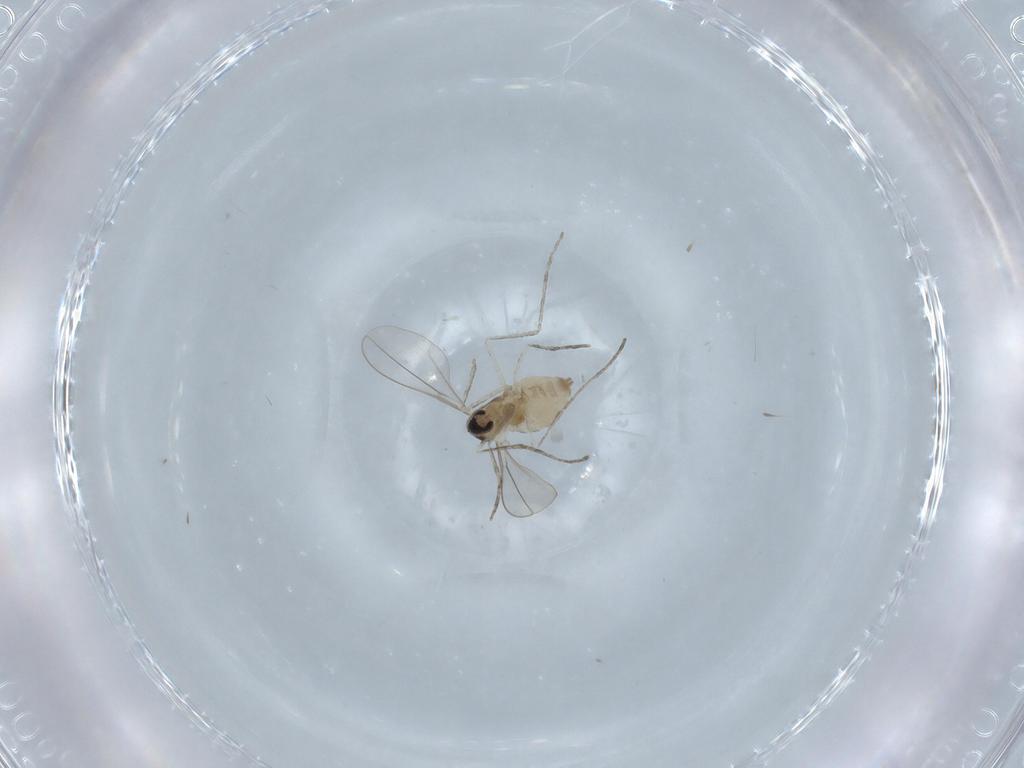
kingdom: Animalia
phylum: Arthropoda
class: Insecta
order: Diptera
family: Cecidomyiidae
